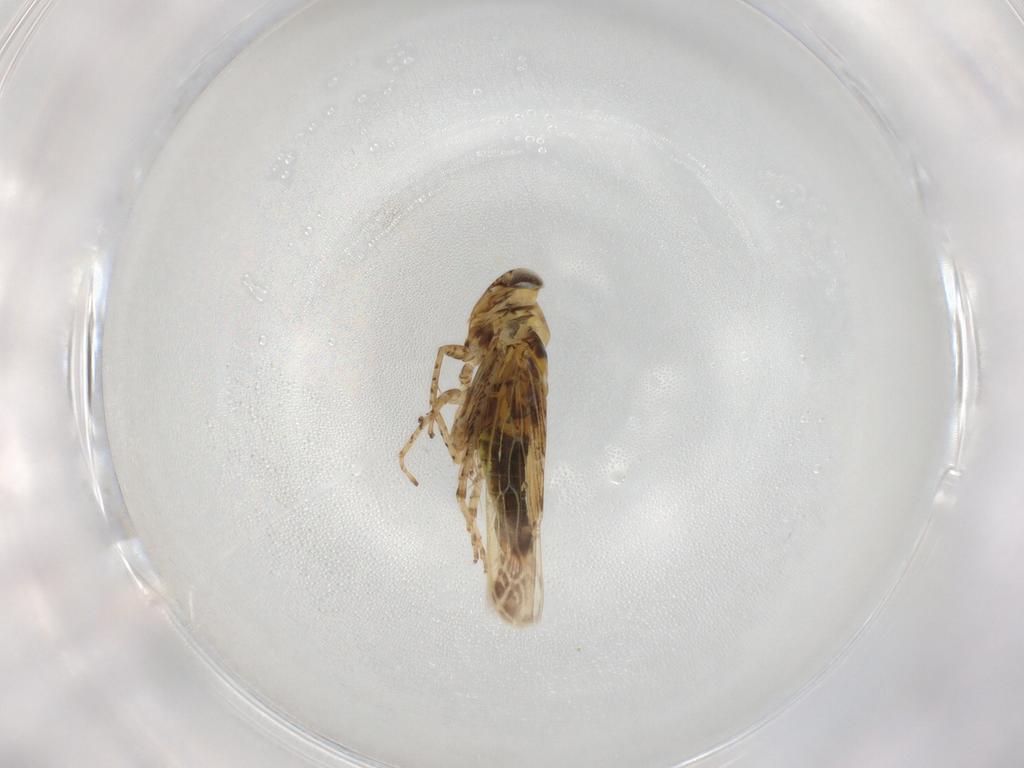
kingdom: Animalia
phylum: Arthropoda
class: Insecta
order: Hemiptera
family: Cicadellidae
